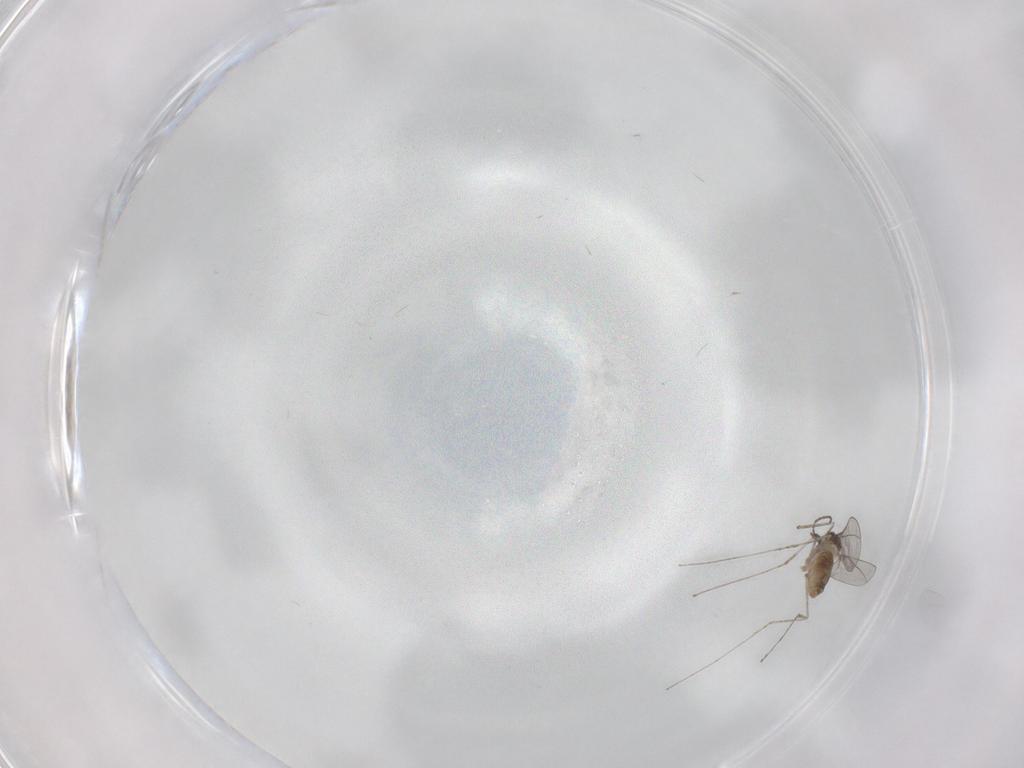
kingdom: Animalia
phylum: Arthropoda
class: Insecta
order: Diptera
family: Cecidomyiidae
